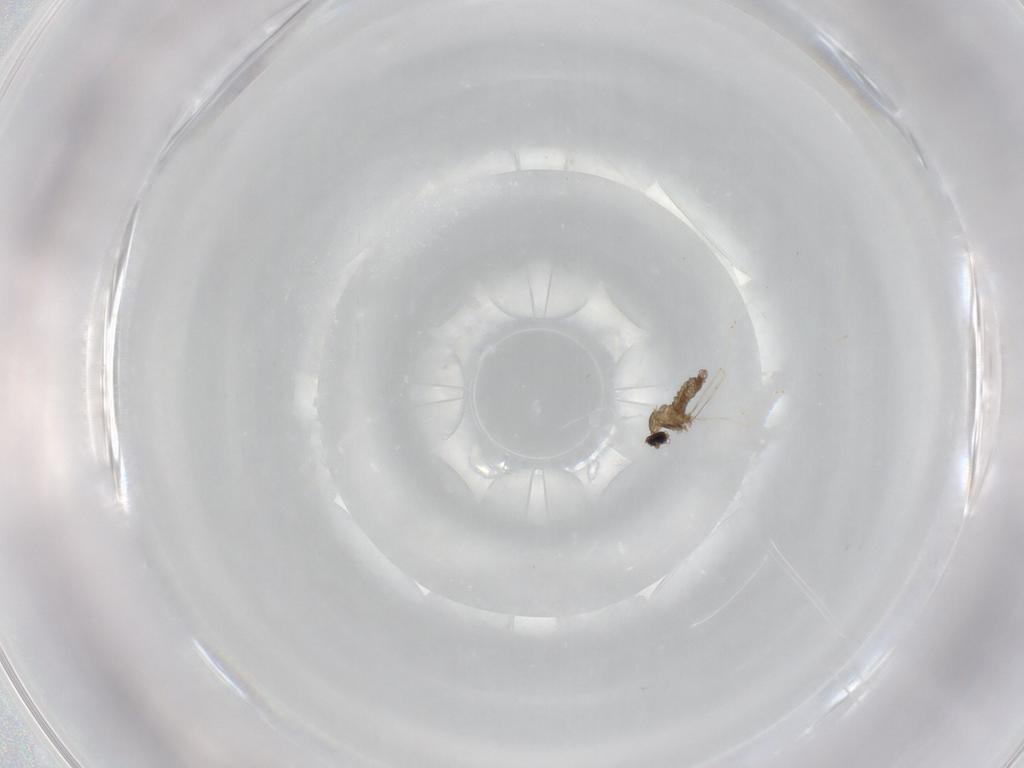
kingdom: Animalia
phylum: Arthropoda
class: Insecta
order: Diptera
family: Cecidomyiidae
